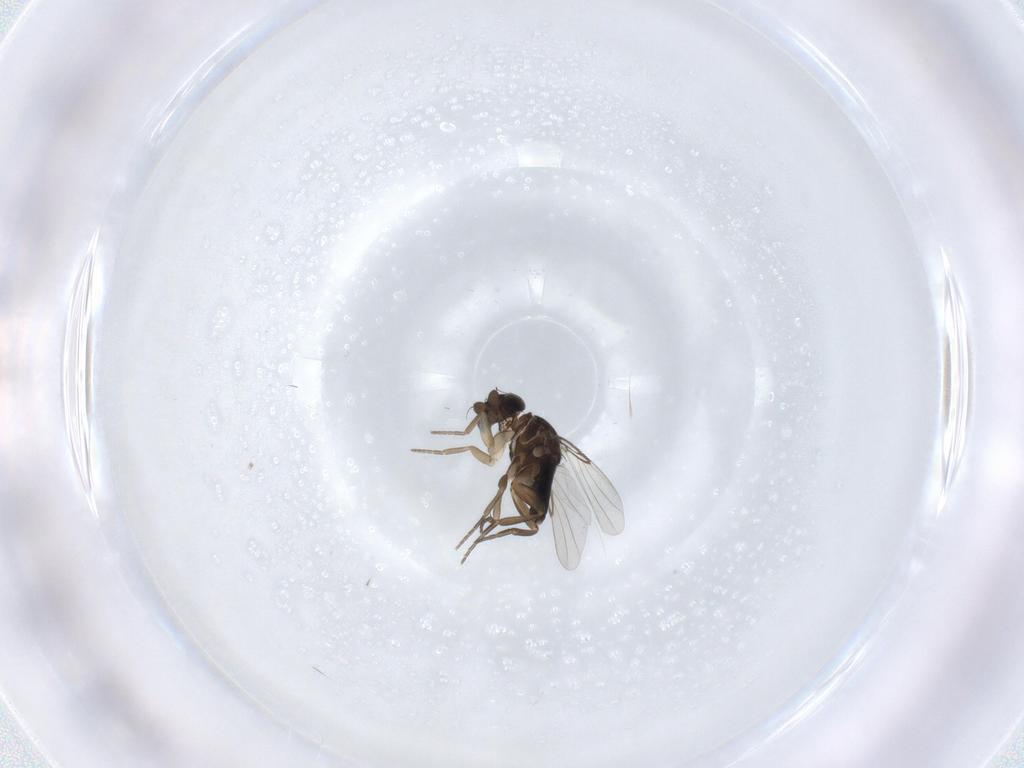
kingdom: Animalia
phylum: Arthropoda
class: Insecta
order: Diptera
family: Phoridae
